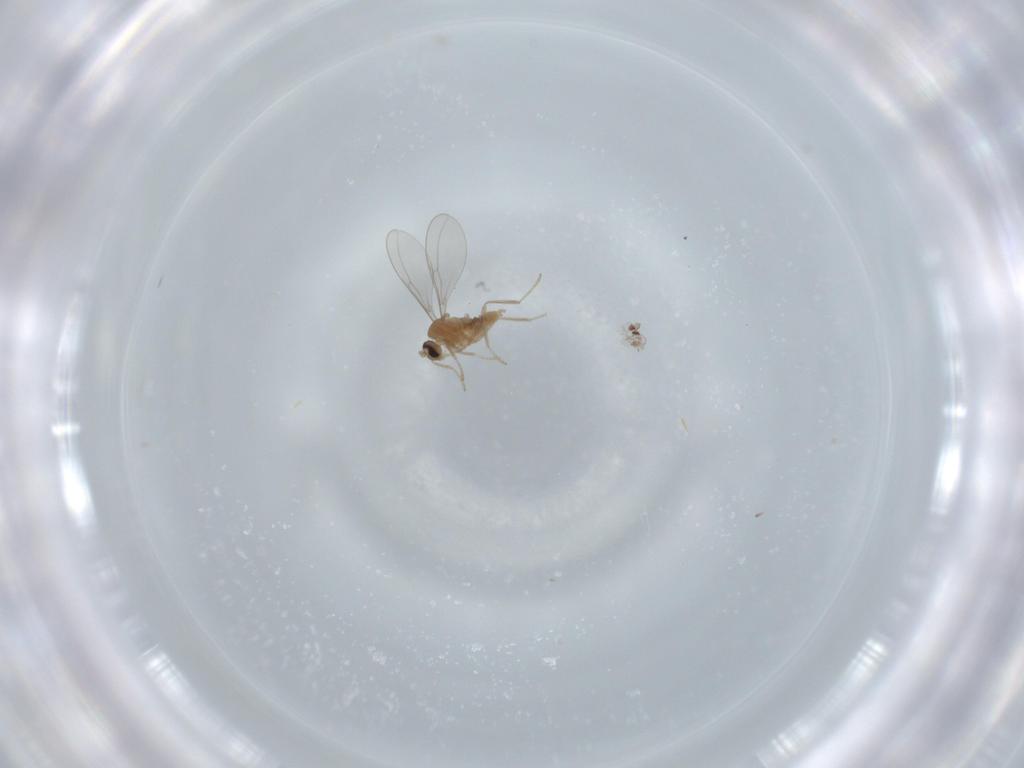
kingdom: Animalia
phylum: Arthropoda
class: Insecta
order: Diptera
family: Cecidomyiidae
